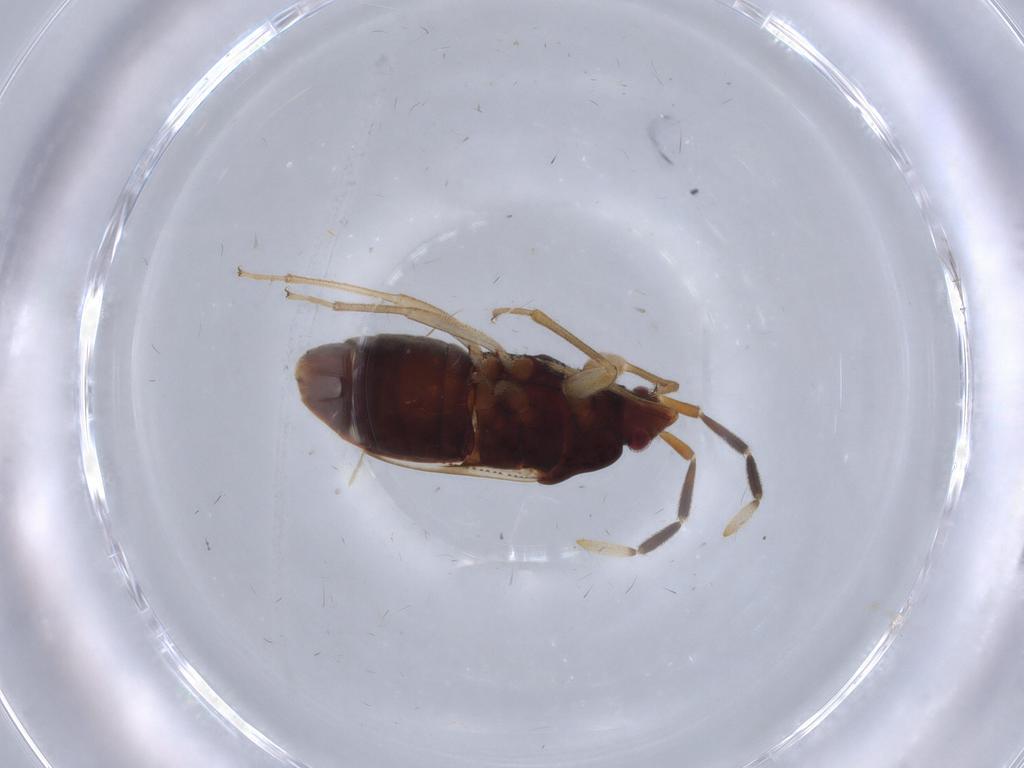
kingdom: Animalia
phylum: Arthropoda
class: Insecta
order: Hemiptera
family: Rhyparochromidae
